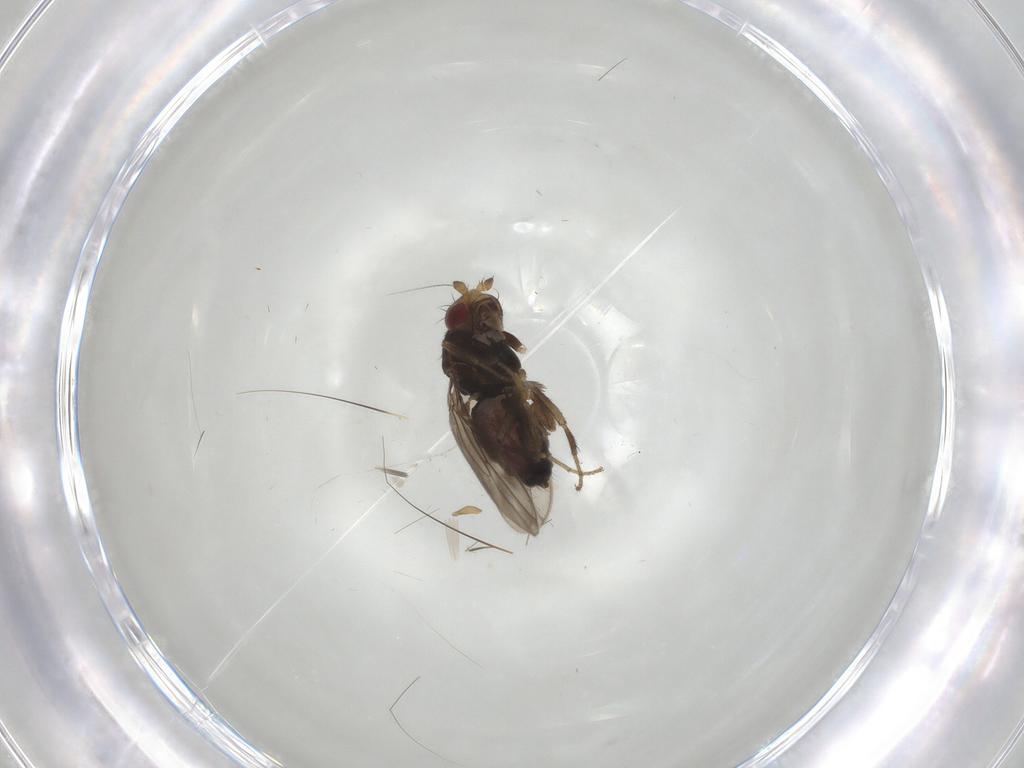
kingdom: Animalia
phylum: Arthropoda
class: Insecta
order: Diptera
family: Sphaeroceridae
